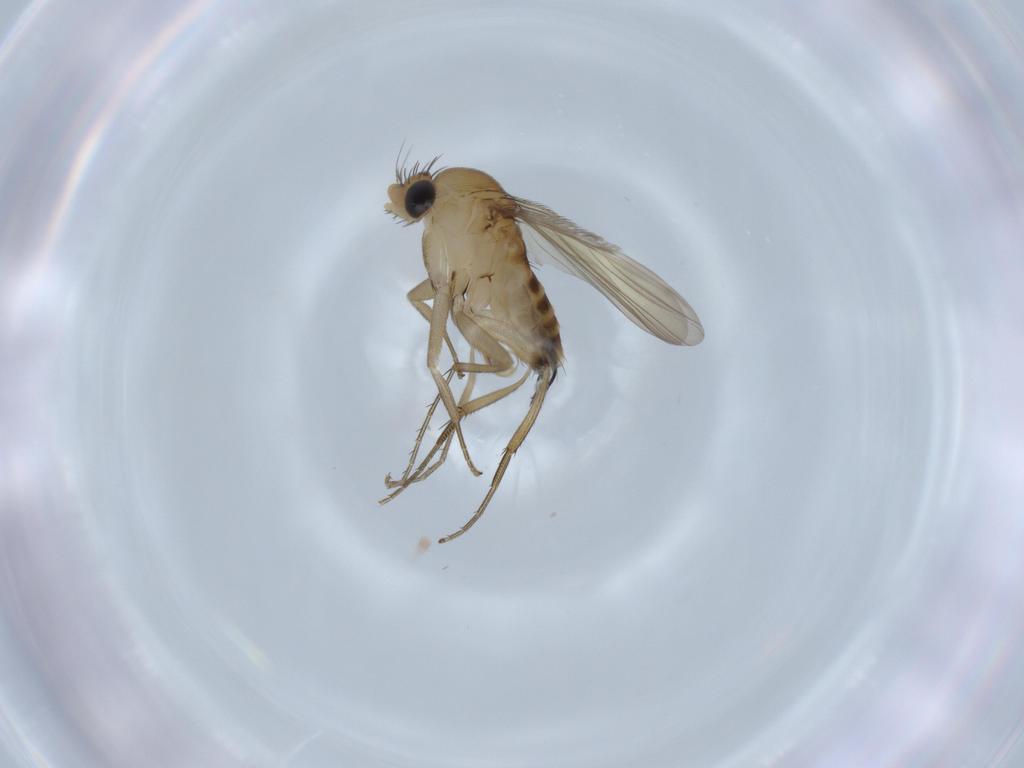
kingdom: Animalia
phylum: Arthropoda
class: Insecta
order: Diptera
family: Phoridae
